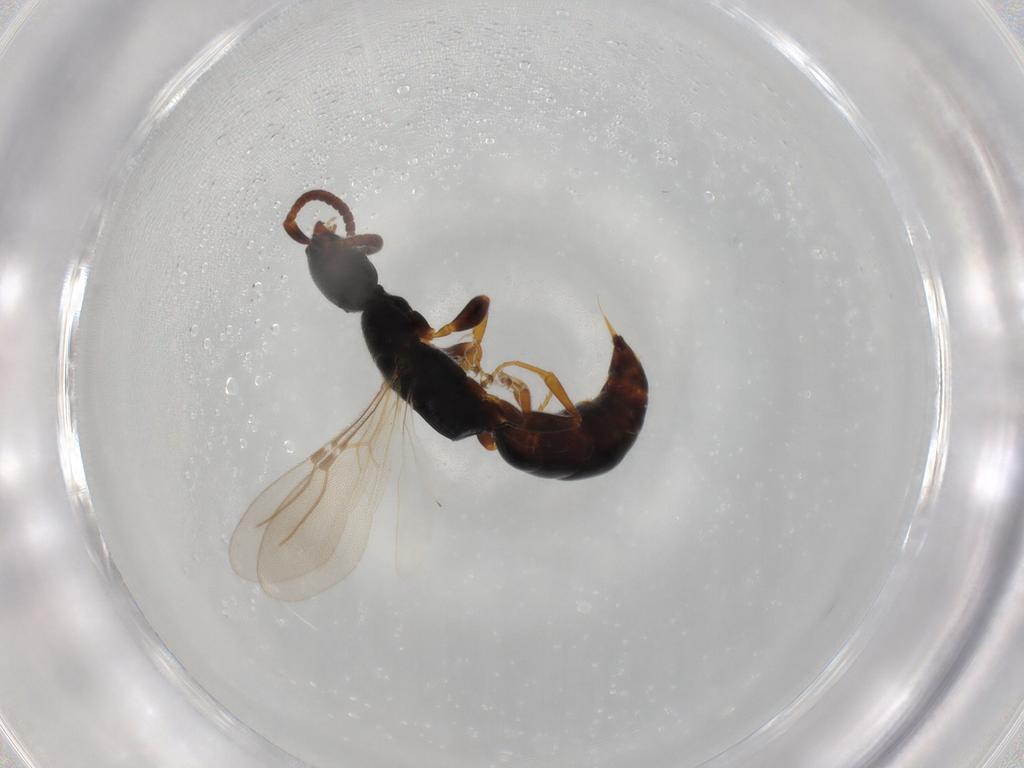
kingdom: Animalia
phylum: Arthropoda
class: Insecta
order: Hymenoptera
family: Bethylidae
